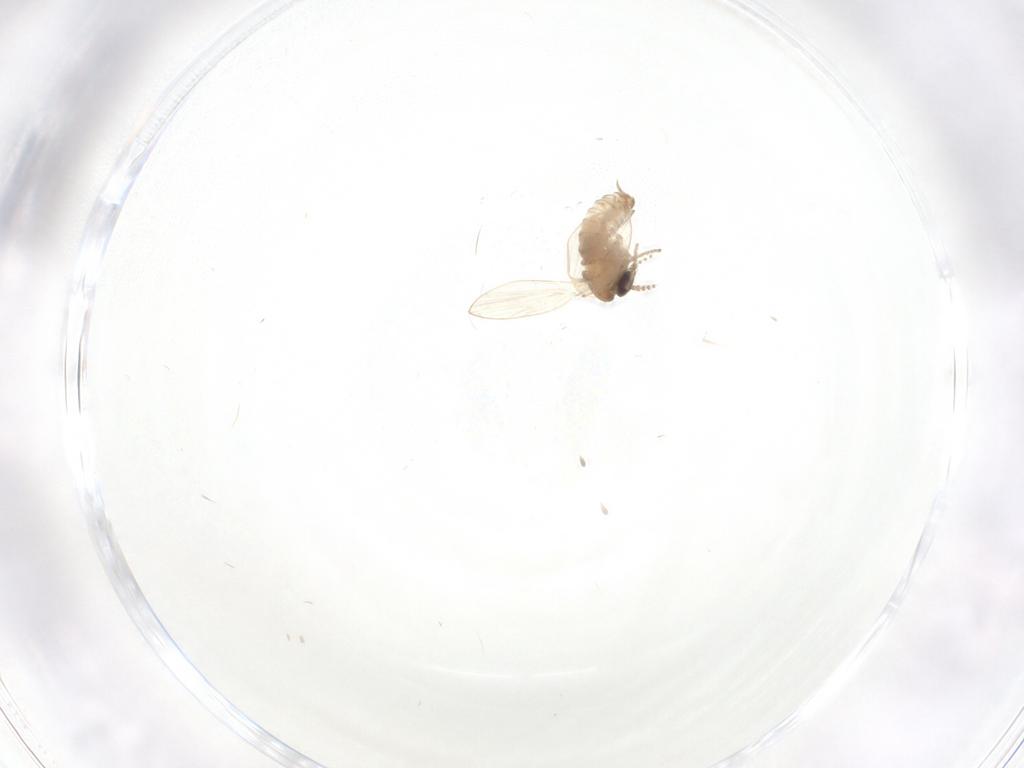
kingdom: Animalia
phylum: Arthropoda
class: Insecta
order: Diptera
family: Psychodidae
